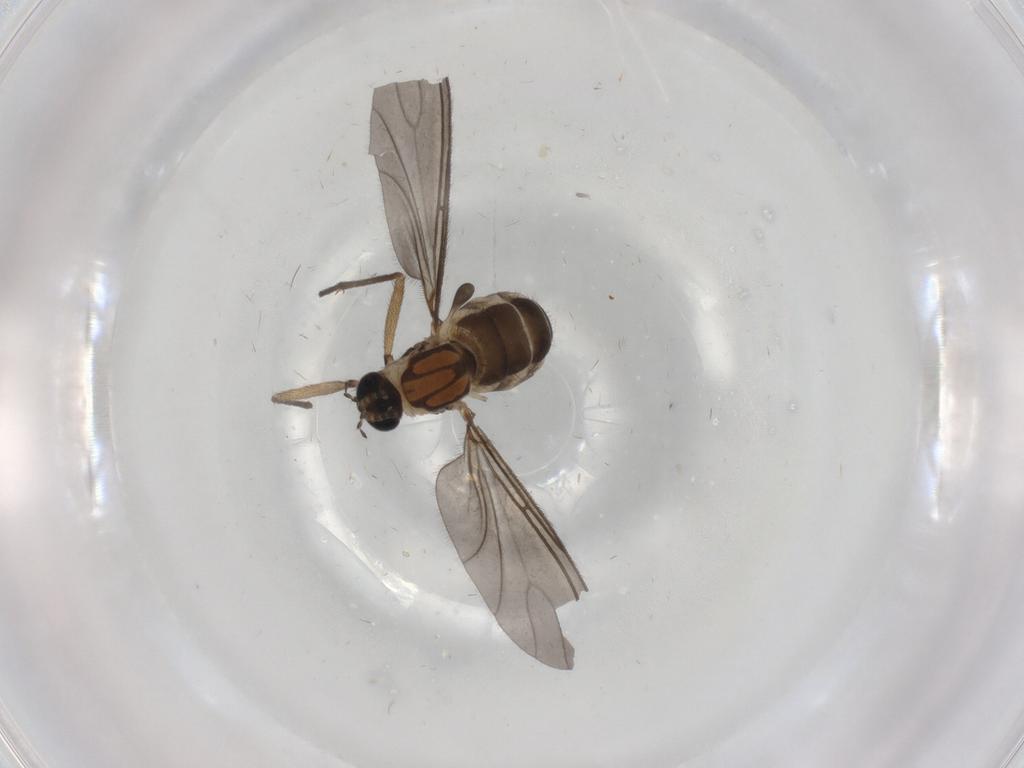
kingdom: Animalia
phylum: Arthropoda
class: Insecta
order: Diptera
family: Sciaridae
